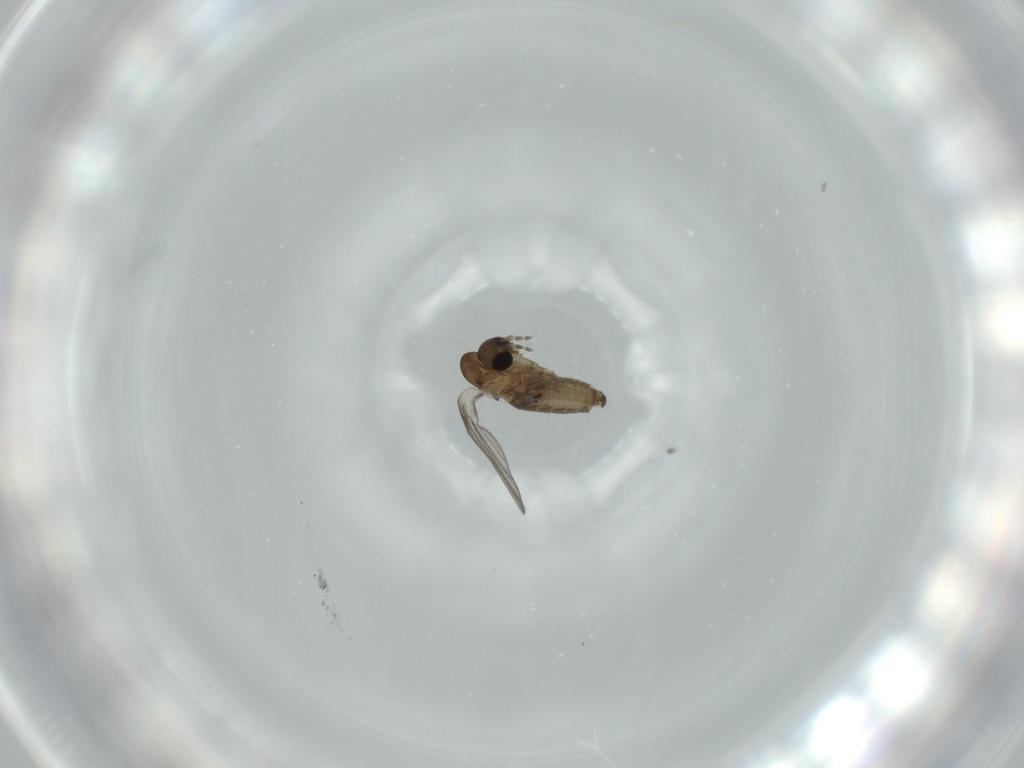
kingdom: Animalia
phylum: Arthropoda
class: Insecta
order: Diptera
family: Psychodidae
